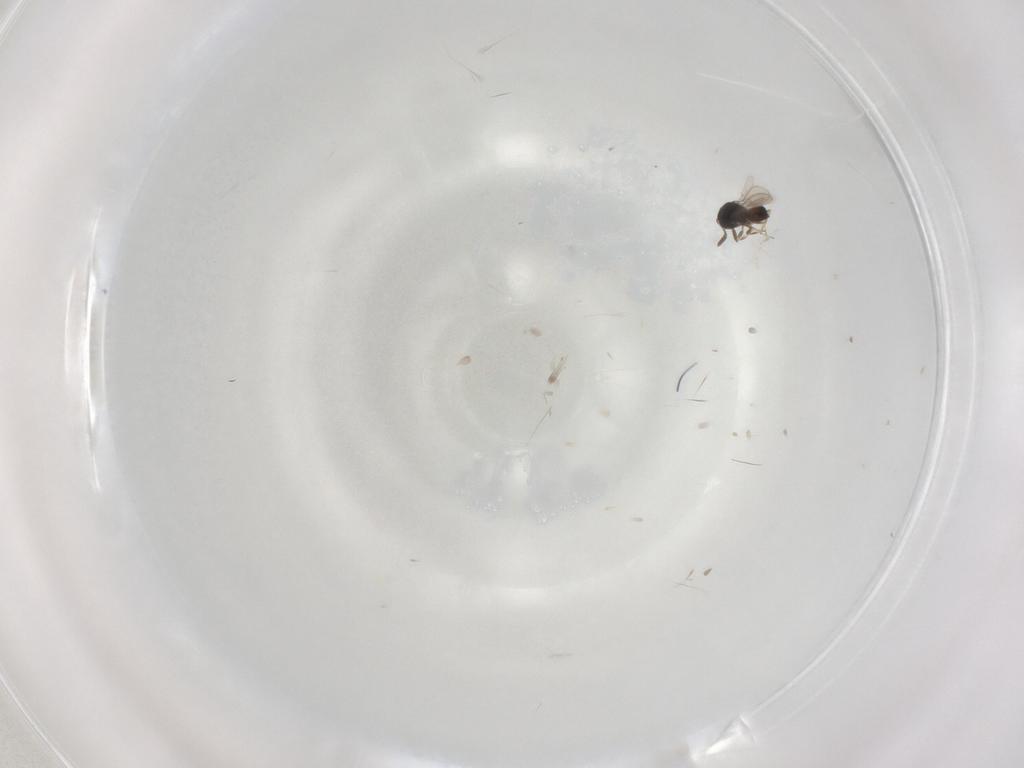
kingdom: Animalia
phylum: Arthropoda
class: Insecta
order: Hymenoptera
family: Scelionidae
